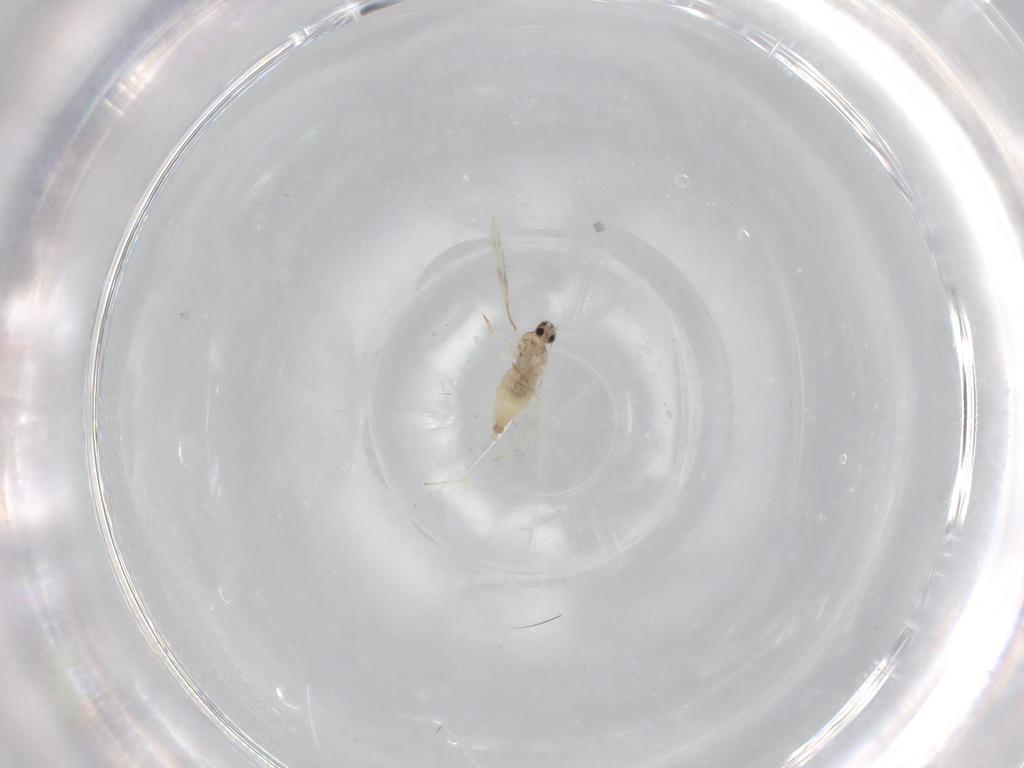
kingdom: Animalia
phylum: Arthropoda
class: Insecta
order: Diptera
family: Cecidomyiidae
